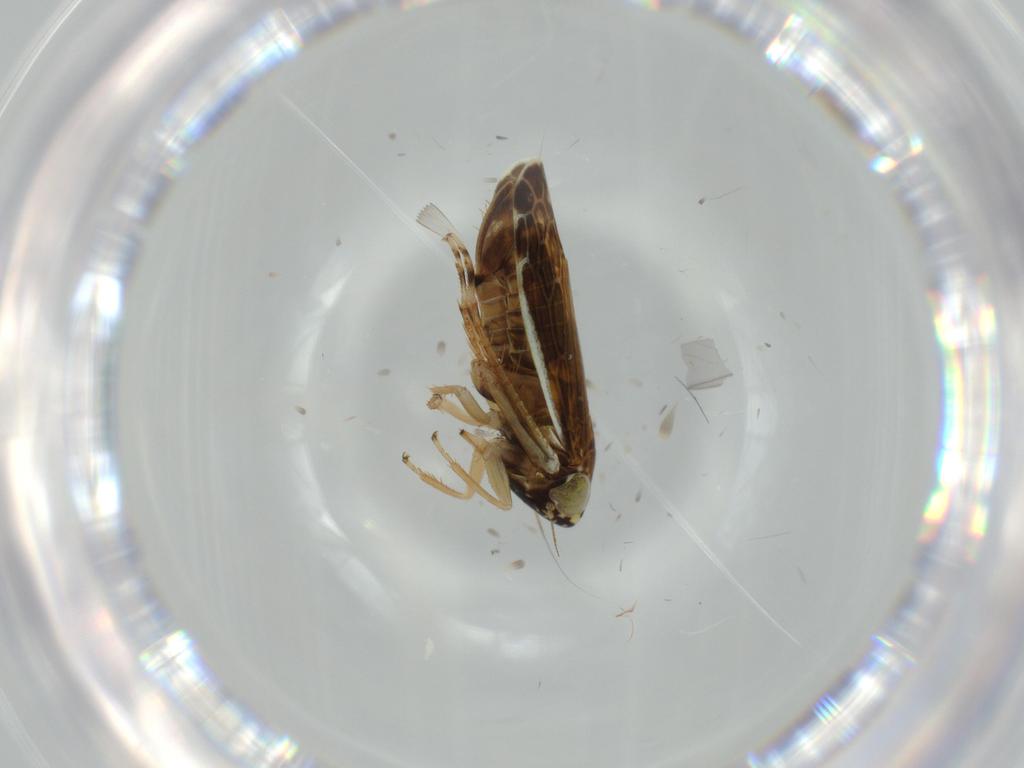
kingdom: Animalia
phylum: Arthropoda
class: Insecta
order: Hemiptera
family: Cicadellidae
